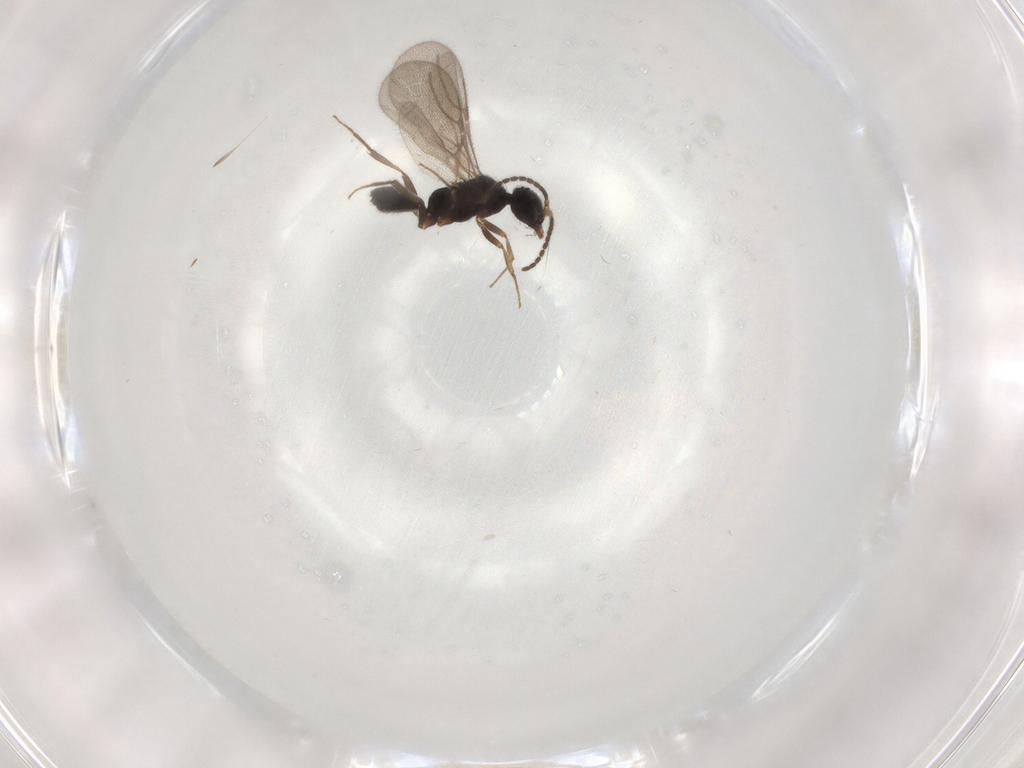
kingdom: Animalia
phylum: Arthropoda
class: Insecta
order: Hymenoptera
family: Bethylidae
